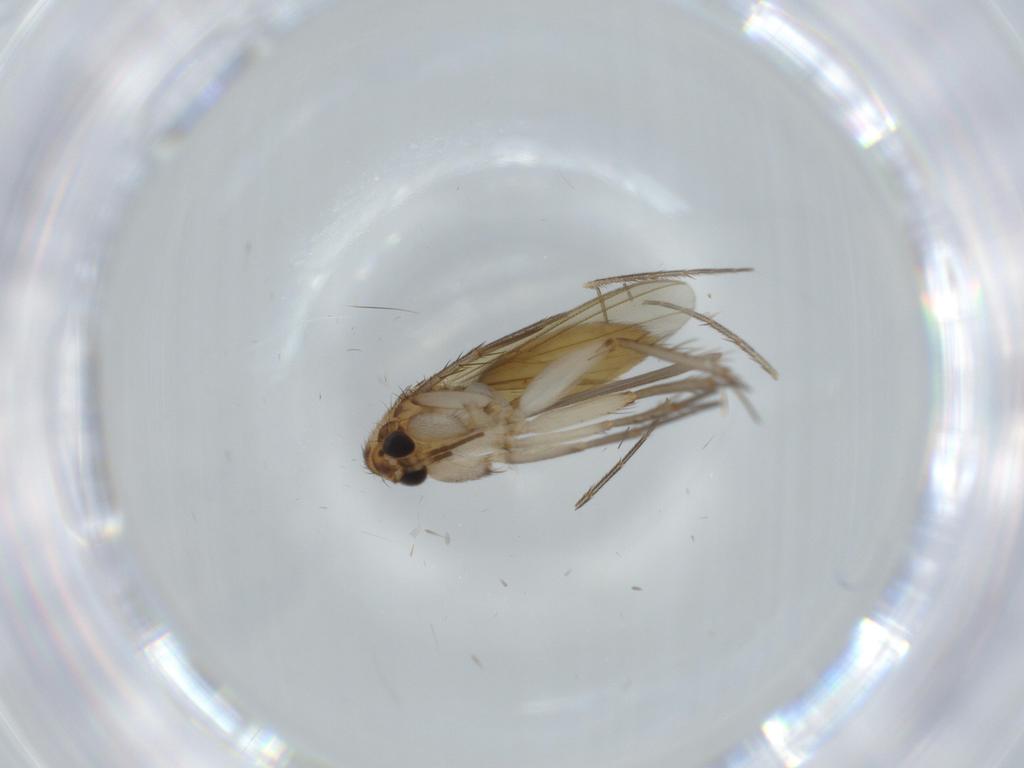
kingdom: Animalia
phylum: Arthropoda
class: Insecta
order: Diptera
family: Mycetophilidae
